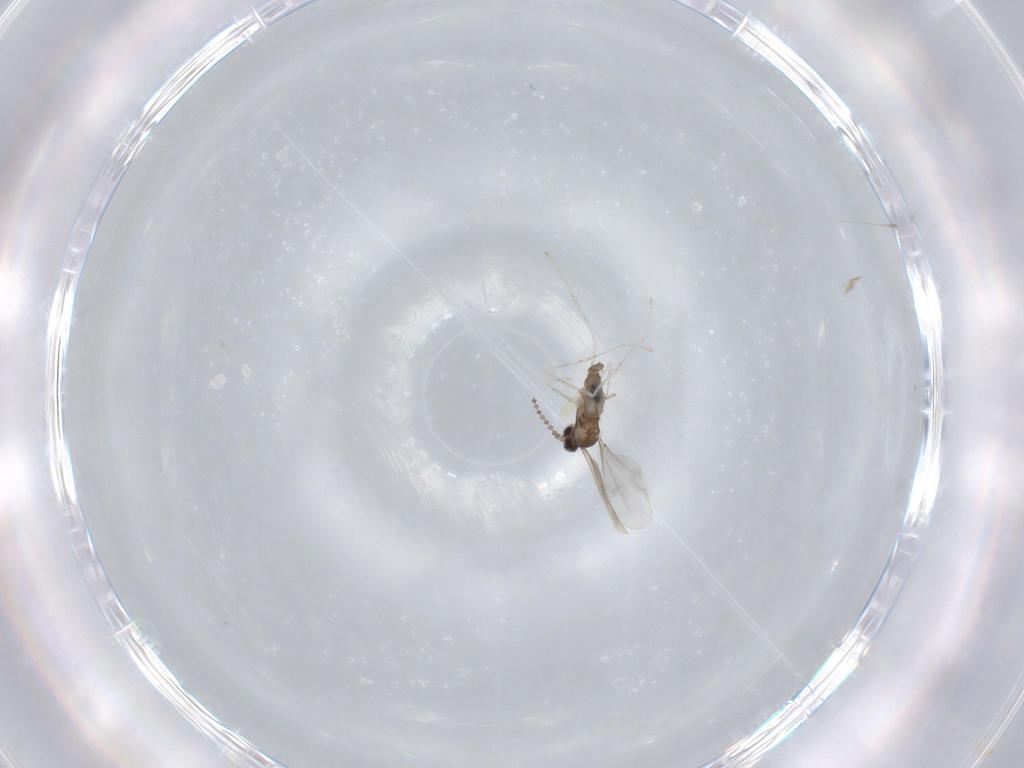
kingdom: Animalia
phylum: Arthropoda
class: Insecta
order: Diptera
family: Cecidomyiidae
